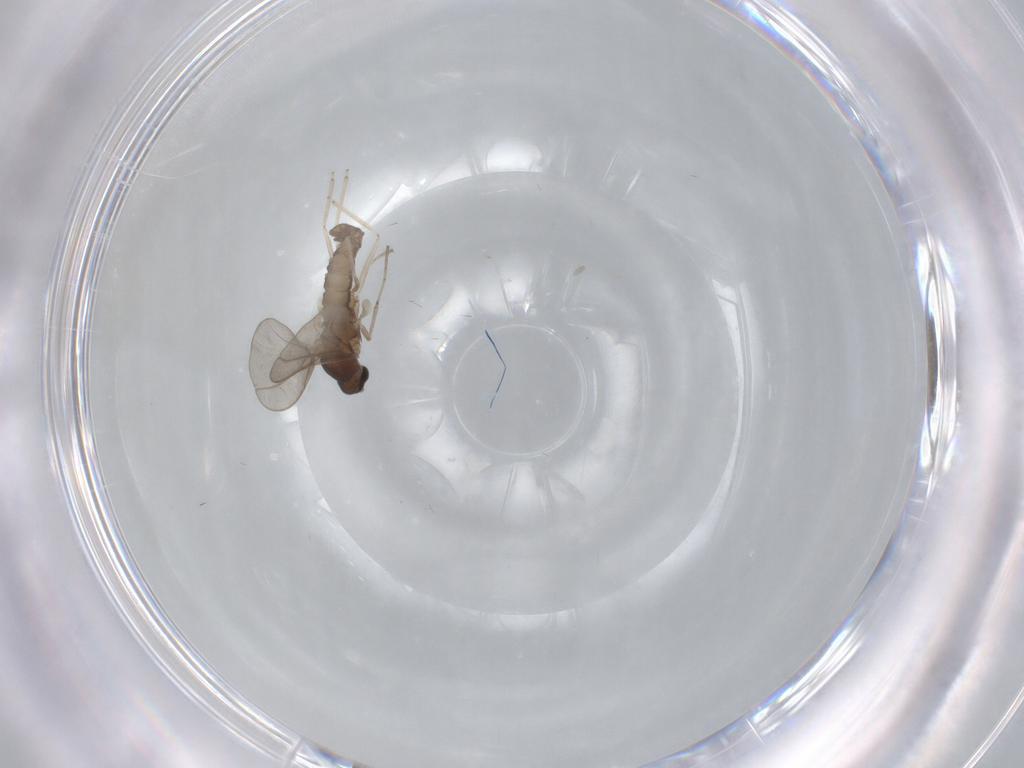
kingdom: Animalia
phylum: Arthropoda
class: Insecta
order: Diptera
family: Cecidomyiidae
